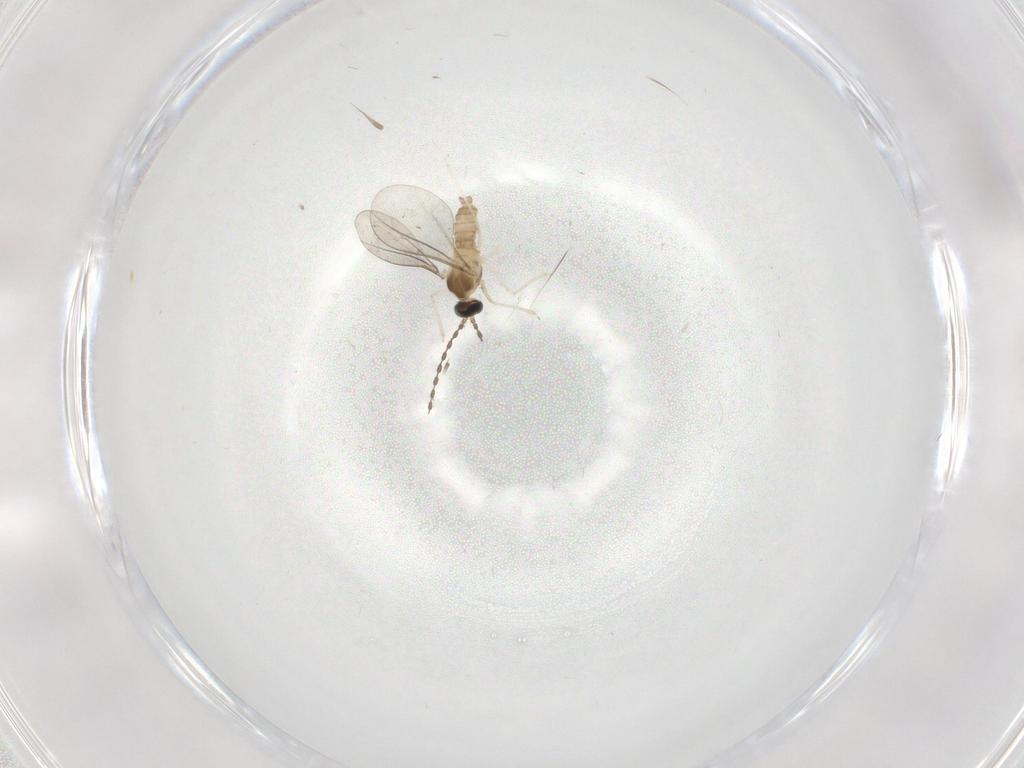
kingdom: Animalia
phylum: Arthropoda
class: Insecta
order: Diptera
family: Cecidomyiidae
